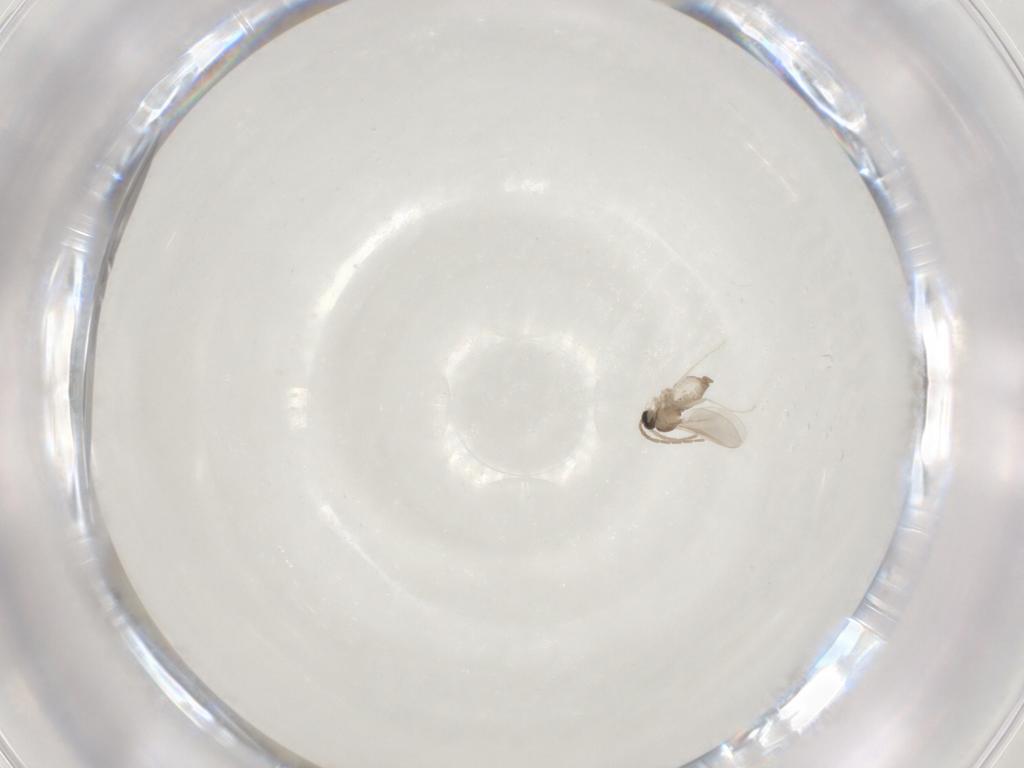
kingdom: Animalia
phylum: Arthropoda
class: Insecta
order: Diptera
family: Cecidomyiidae
